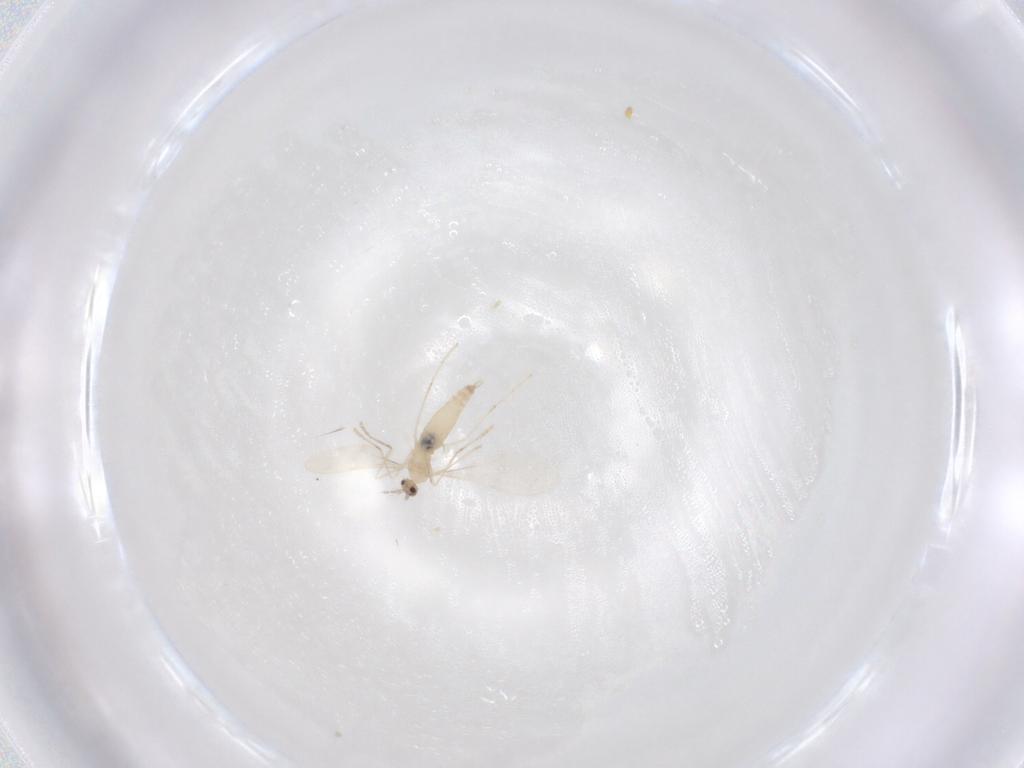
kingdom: Animalia
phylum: Arthropoda
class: Insecta
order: Diptera
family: Cecidomyiidae
